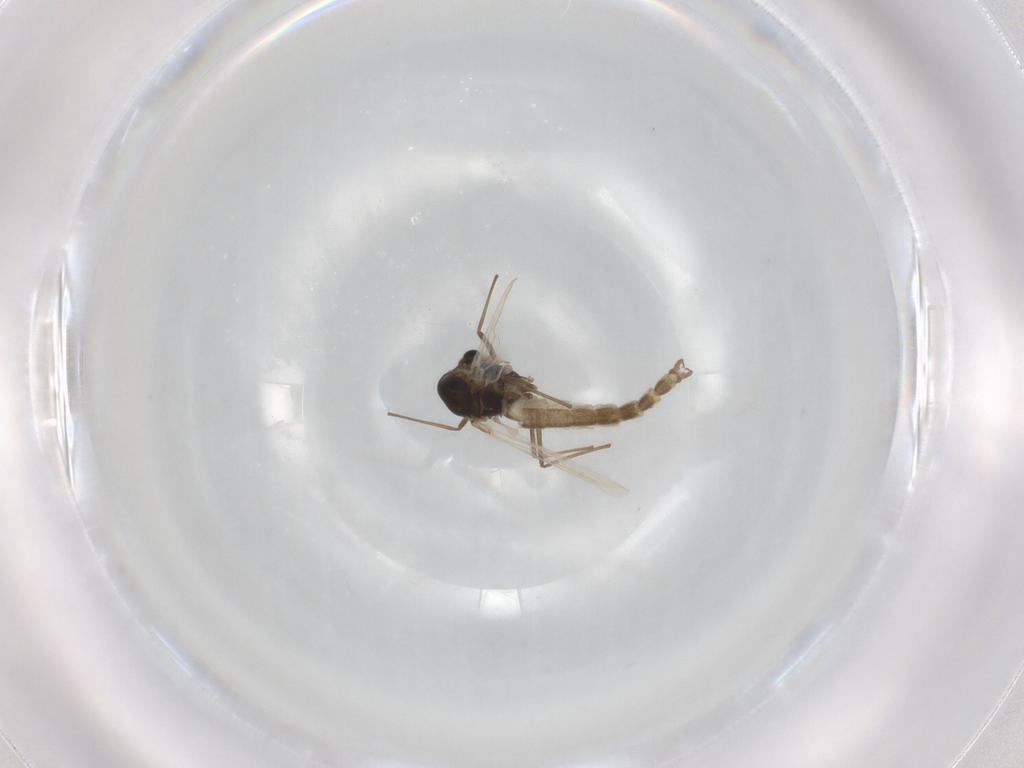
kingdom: Animalia
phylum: Arthropoda
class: Insecta
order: Diptera
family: Chironomidae
